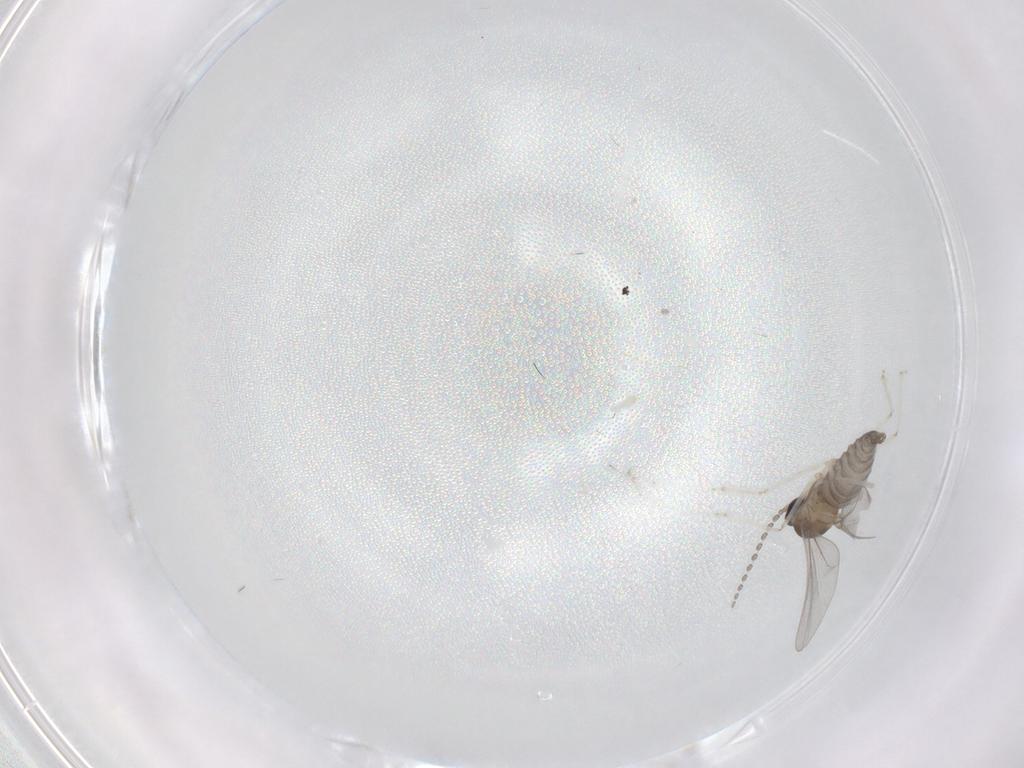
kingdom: Animalia
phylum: Arthropoda
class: Insecta
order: Diptera
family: Cecidomyiidae
